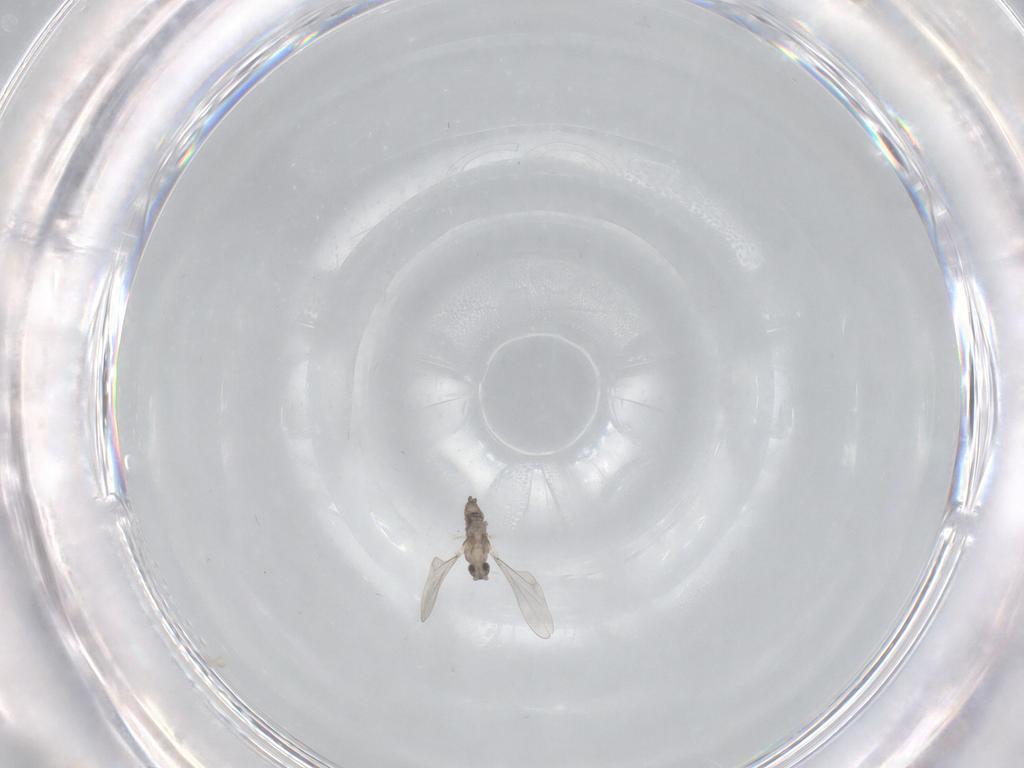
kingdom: Animalia
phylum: Arthropoda
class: Insecta
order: Diptera
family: Cecidomyiidae
